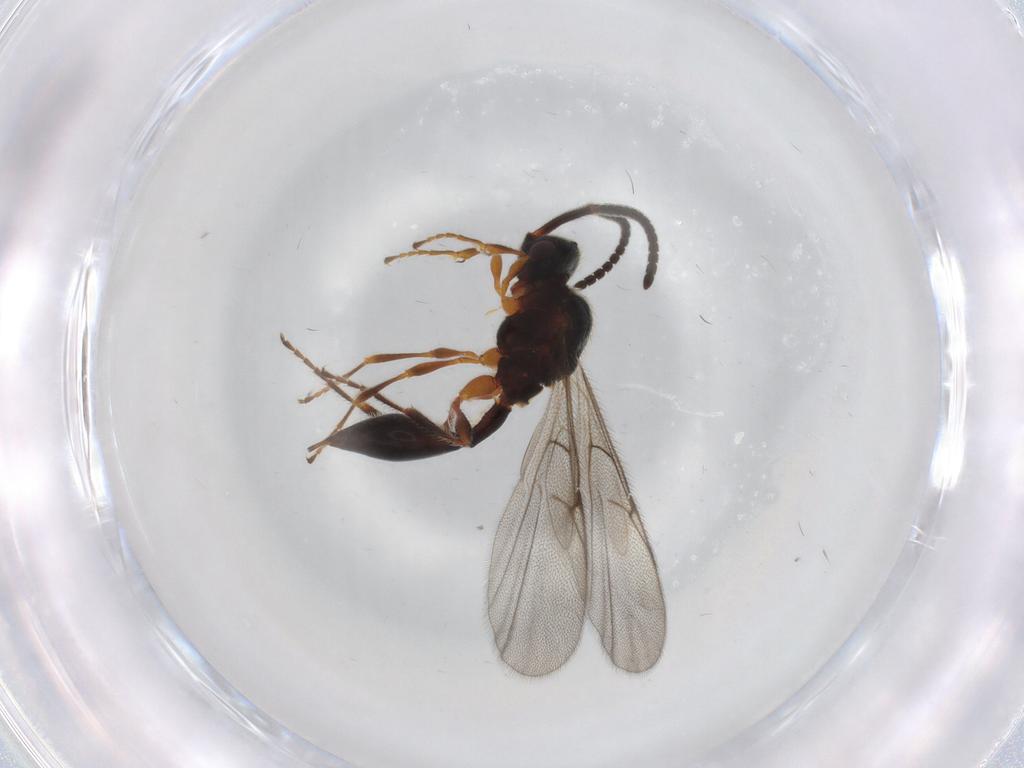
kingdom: Animalia
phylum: Arthropoda
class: Insecta
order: Hymenoptera
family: Diapriidae
